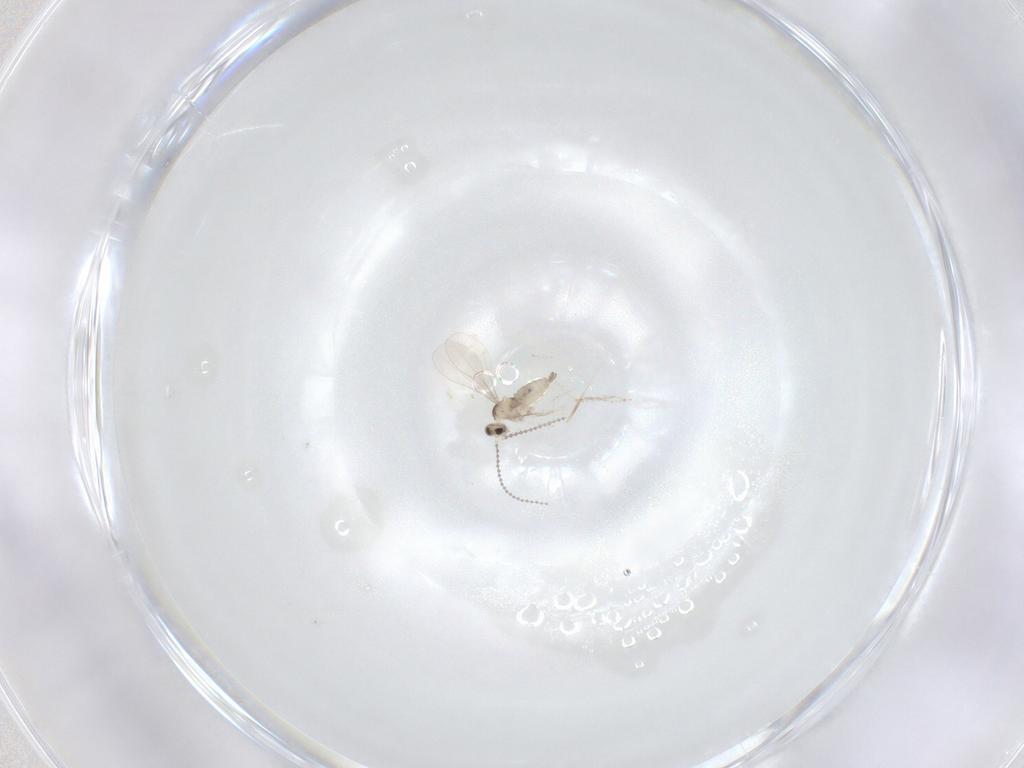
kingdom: Animalia
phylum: Arthropoda
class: Insecta
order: Diptera
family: Cecidomyiidae
